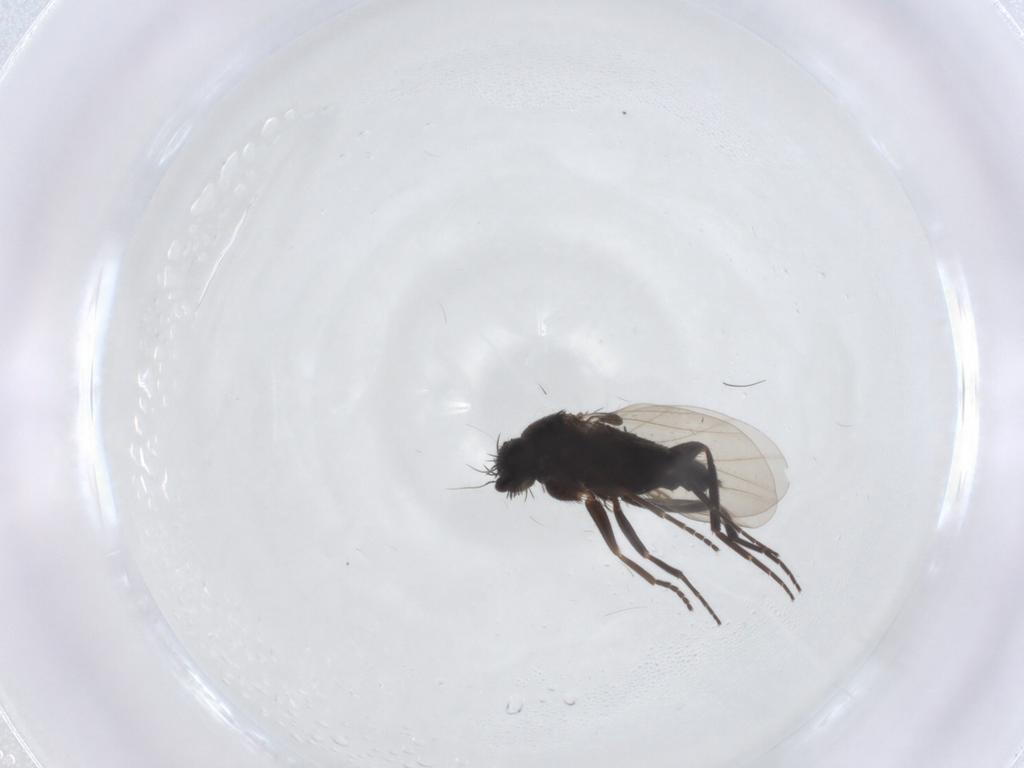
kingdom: Animalia
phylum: Arthropoda
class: Insecta
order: Diptera
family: Phoridae
